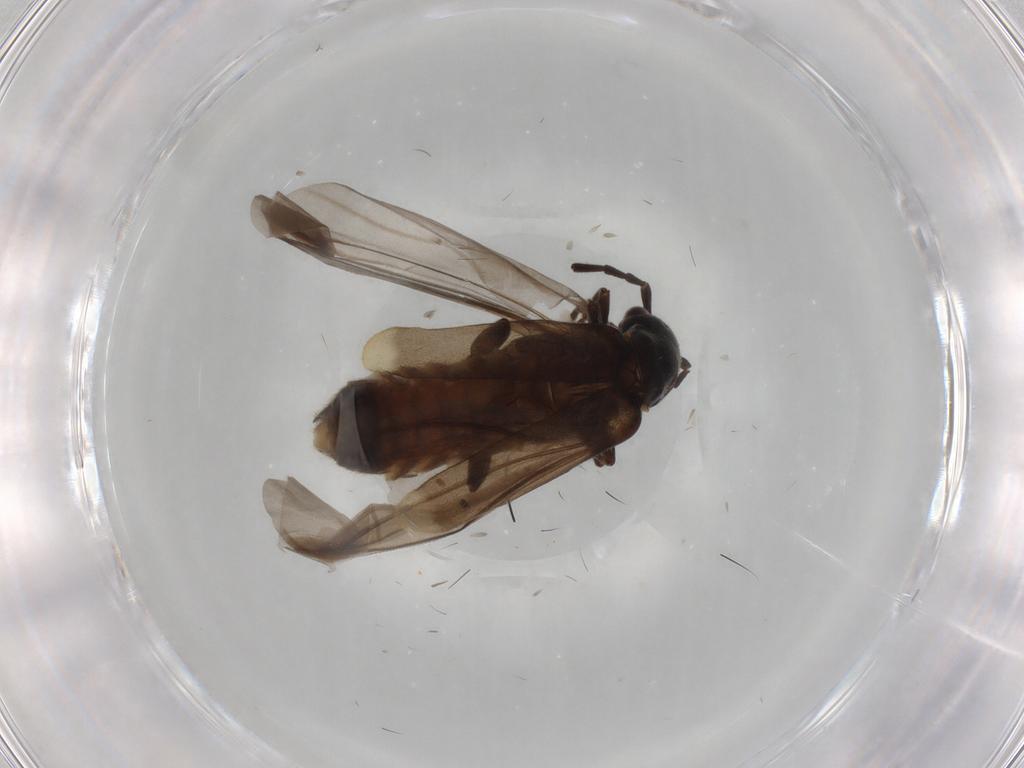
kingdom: Animalia
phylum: Arthropoda
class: Insecta
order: Coleoptera
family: Cantharidae
